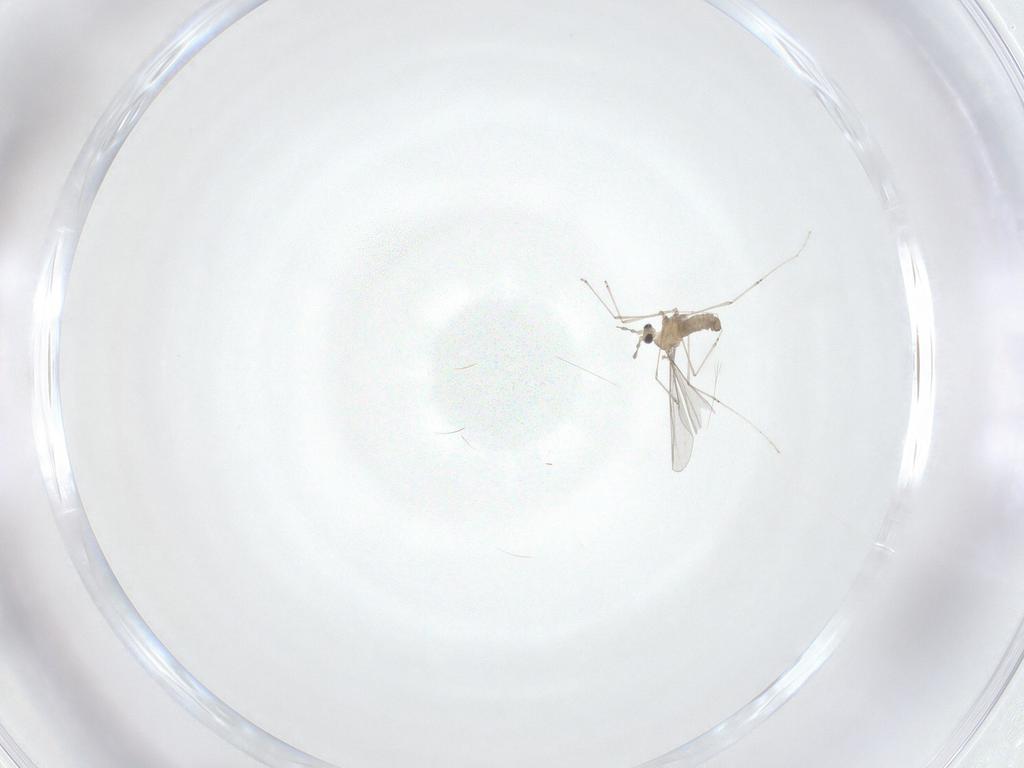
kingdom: Animalia
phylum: Arthropoda
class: Insecta
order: Diptera
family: Cecidomyiidae
